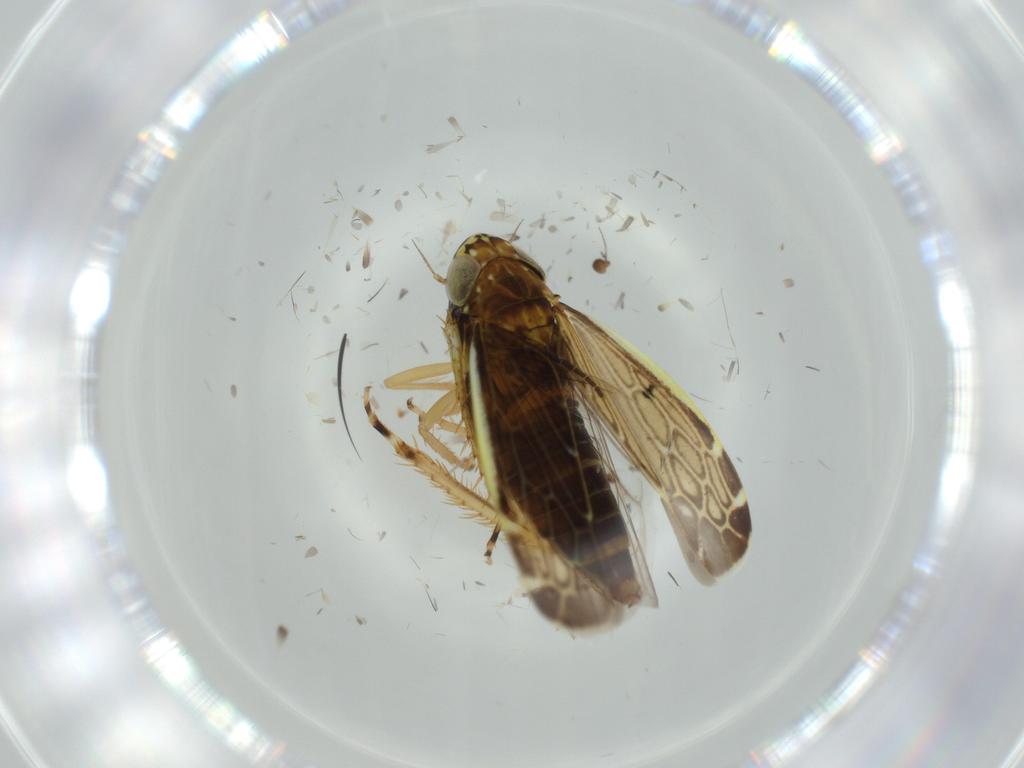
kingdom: Animalia
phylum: Arthropoda
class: Insecta
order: Hemiptera
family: Cicadellidae
